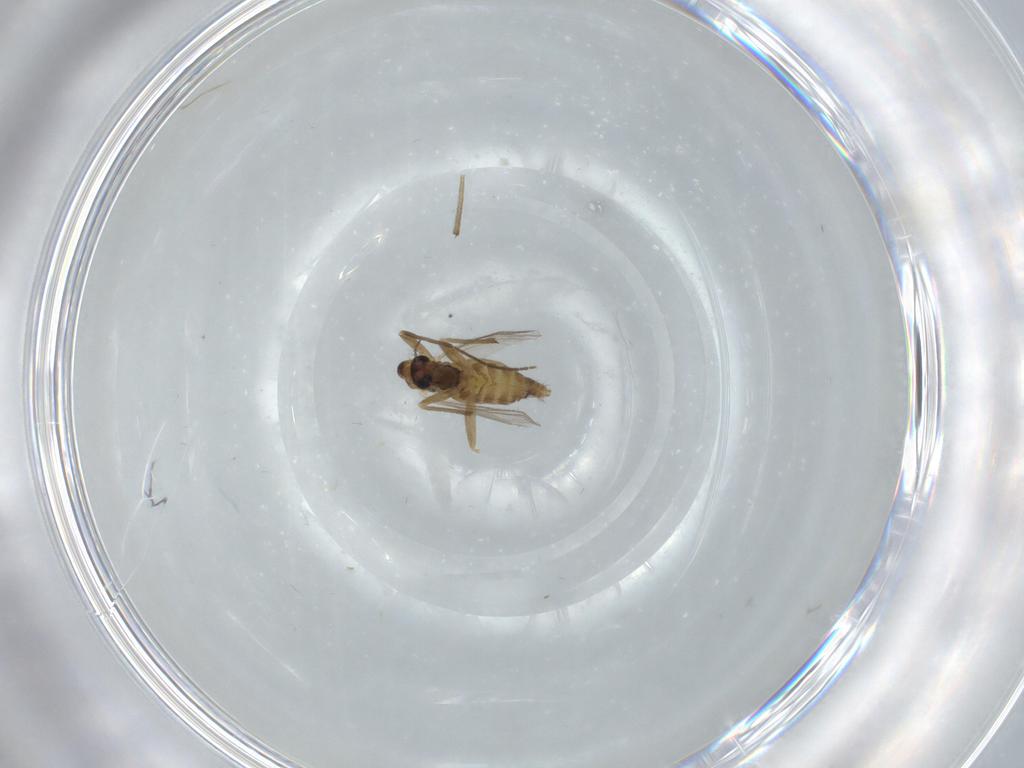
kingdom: Animalia
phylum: Arthropoda
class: Insecta
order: Diptera
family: Chironomidae
